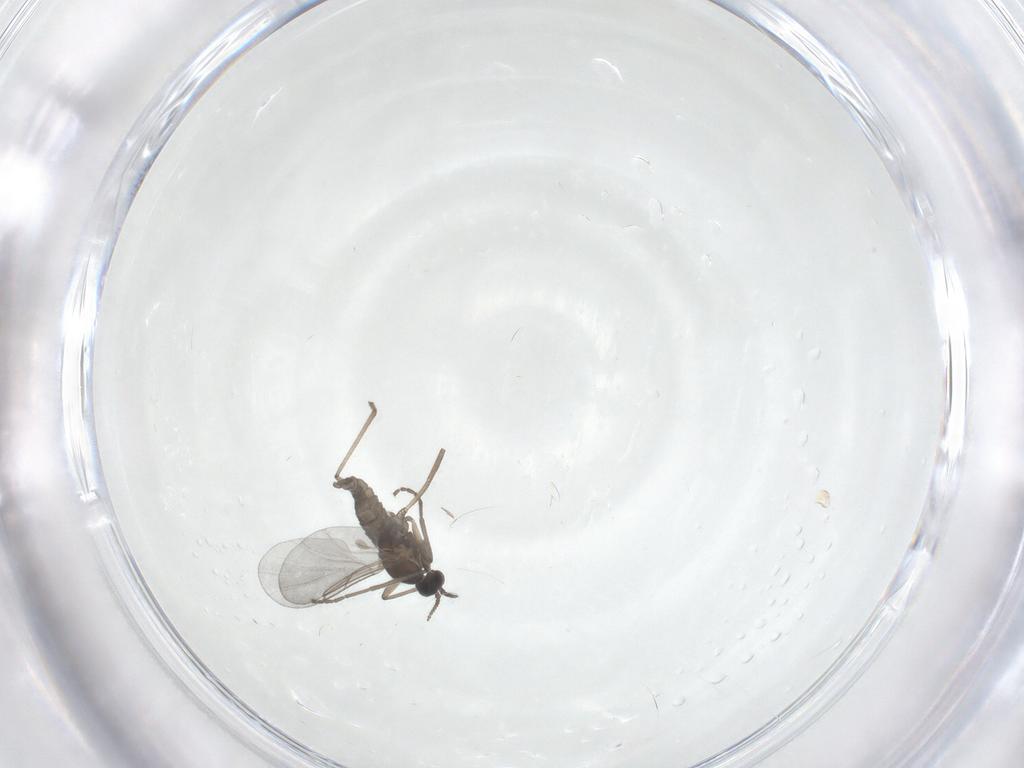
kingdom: Animalia
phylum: Arthropoda
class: Insecta
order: Diptera
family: Cecidomyiidae
